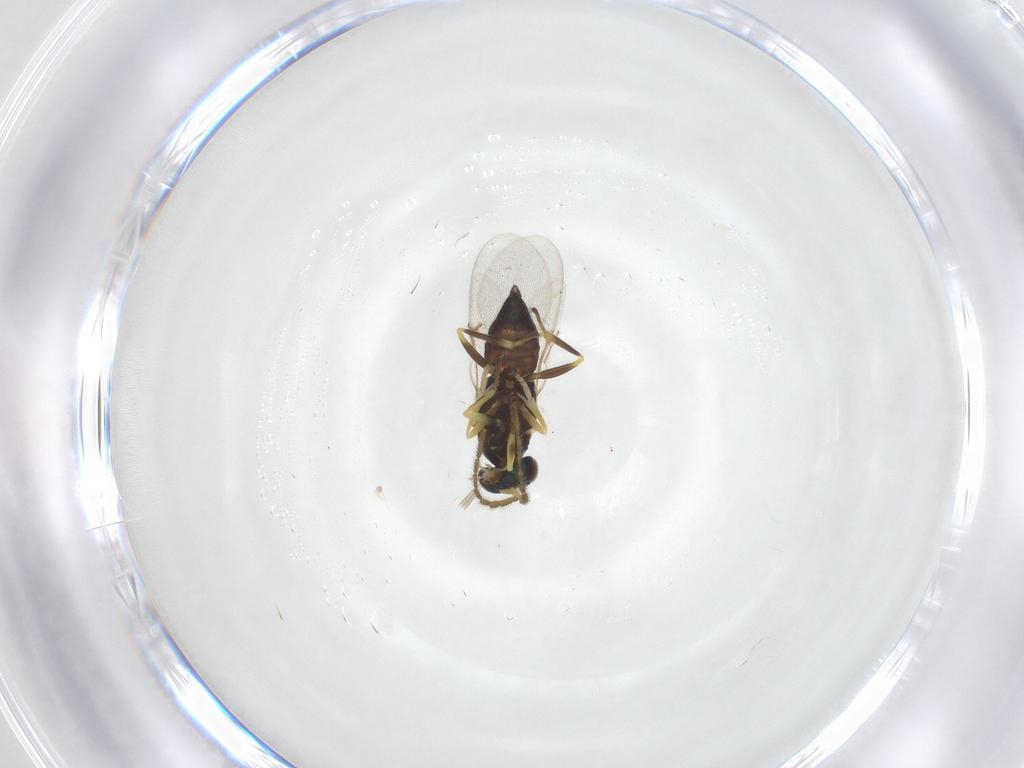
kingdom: Animalia
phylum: Arthropoda
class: Insecta
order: Hymenoptera
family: Encyrtidae
